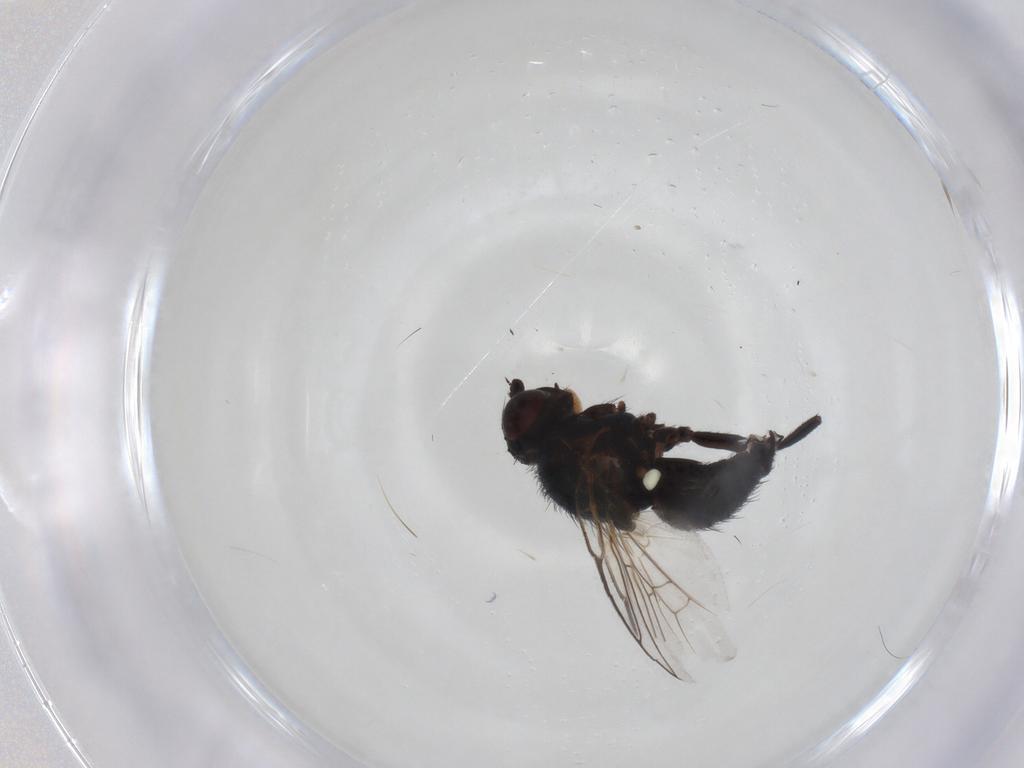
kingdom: Animalia
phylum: Arthropoda
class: Insecta
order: Diptera
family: Agromyzidae
